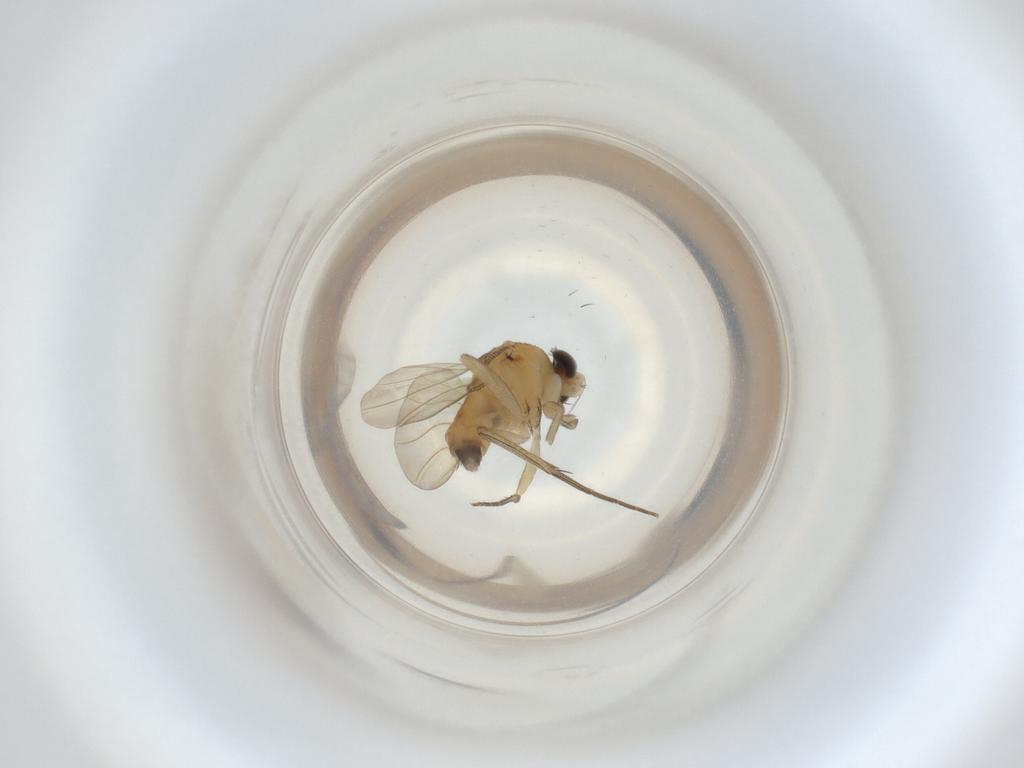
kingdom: Animalia
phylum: Arthropoda
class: Insecta
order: Diptera
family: Phoridae
